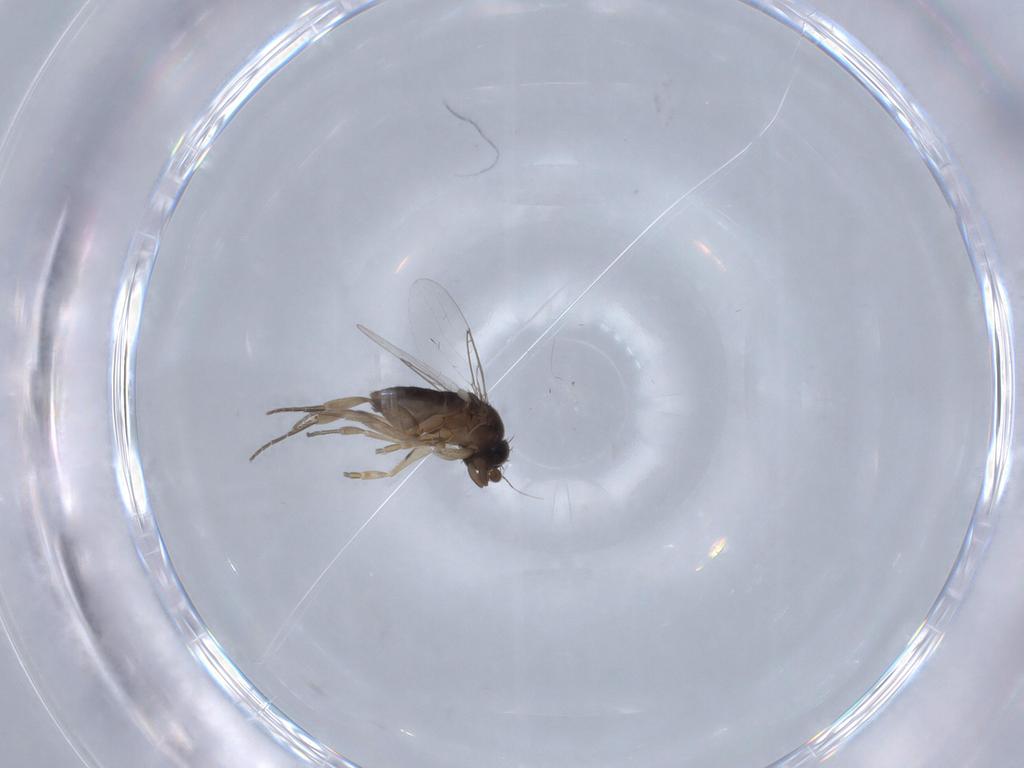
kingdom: Animalia
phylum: Arthropoda
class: Insecta
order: Diptera
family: Phoridae
